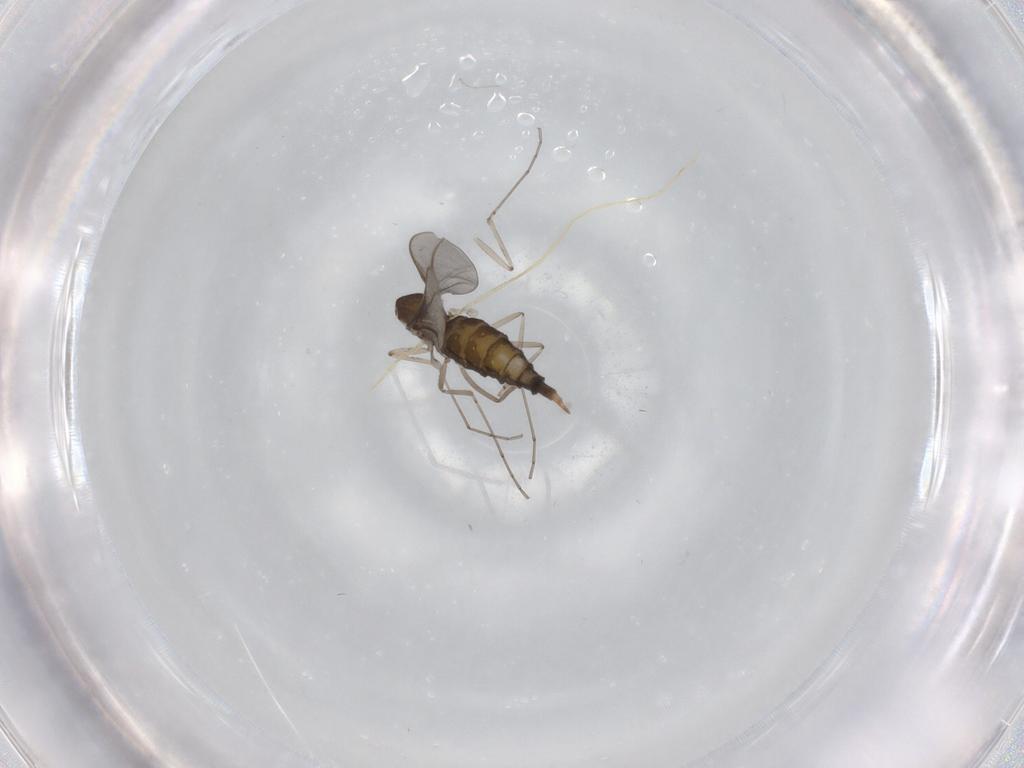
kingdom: Animalia
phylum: Arthropoda
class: Insecta
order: Diptera
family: Cecidomyiidae
